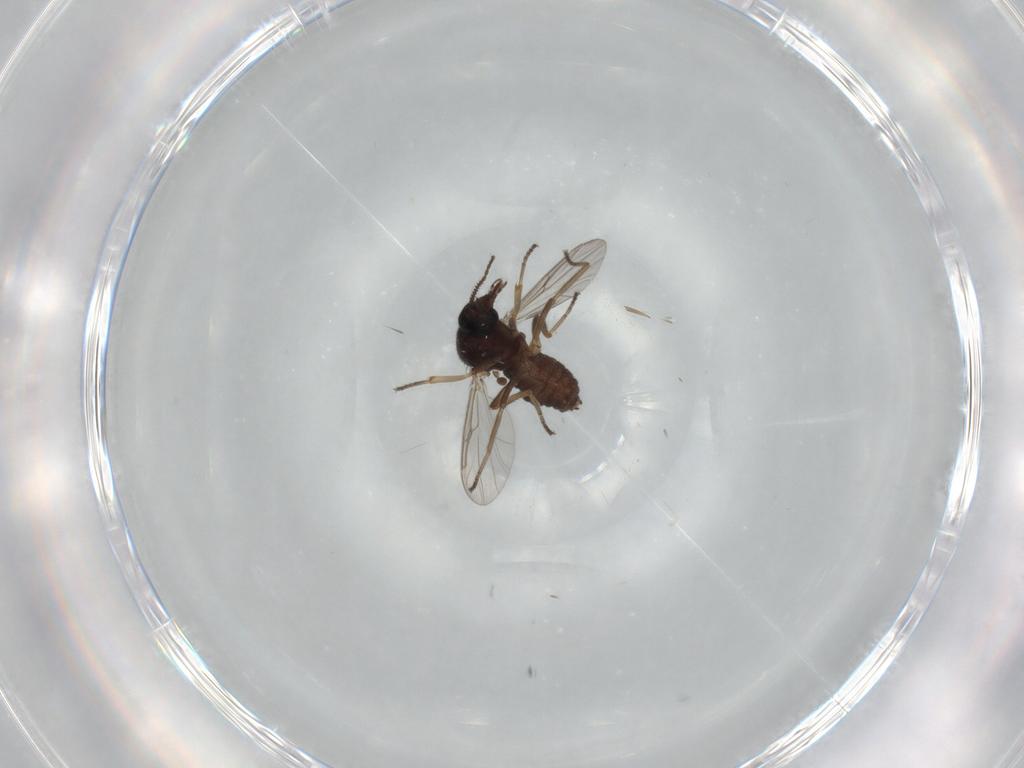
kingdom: Animalia
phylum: Arthropoda
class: Insecta
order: Diptera
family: Ceratopogonidae
